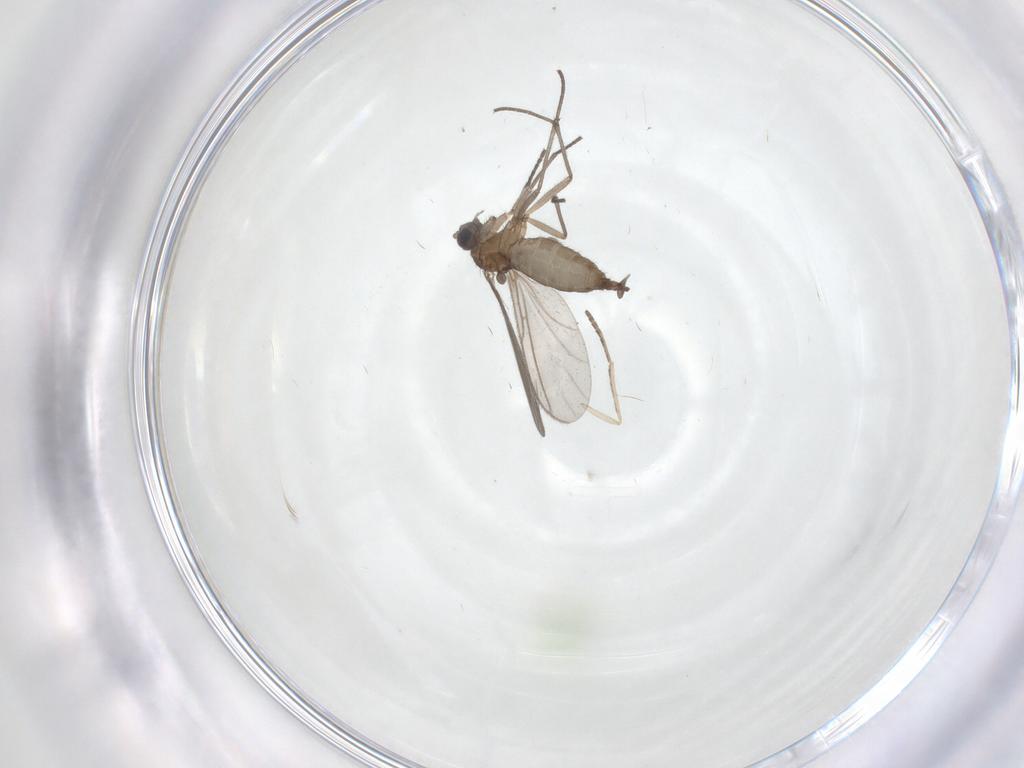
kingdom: Animalia
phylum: Arthropoda
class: Insecta
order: Diptera
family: Sciaridae
